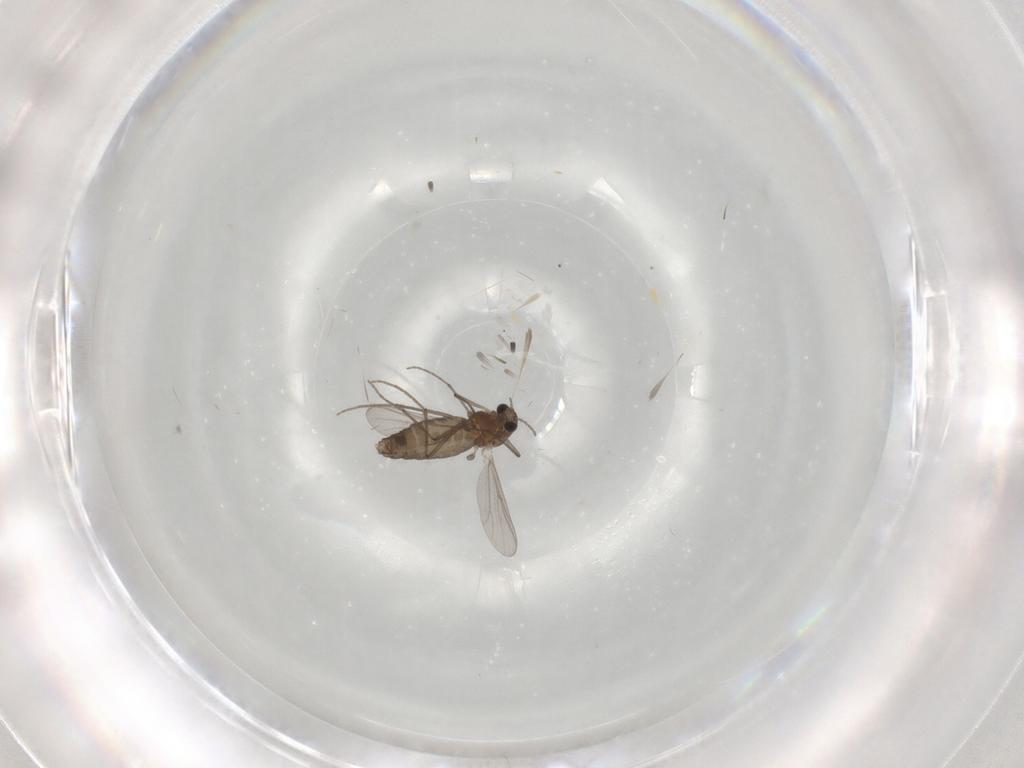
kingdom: Animalia
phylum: Arthropoda
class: Insecta
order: Diptera
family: Chironomidae
